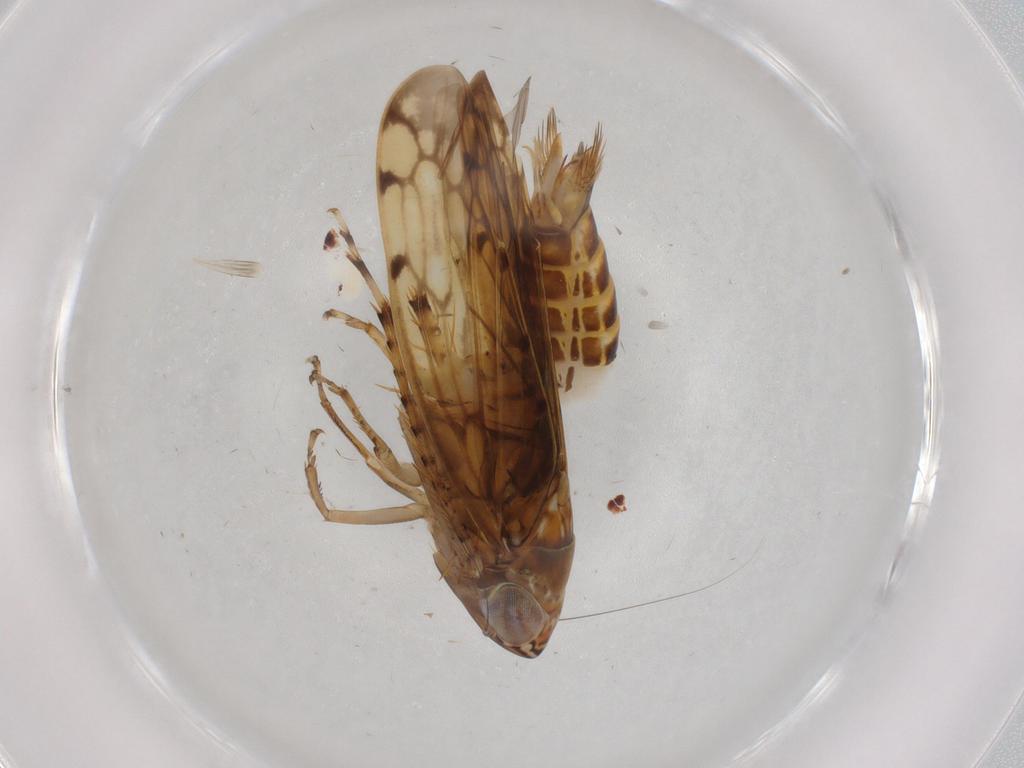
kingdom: Animalia
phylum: Arthropoda
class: Insecta
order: Hemiptera
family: Cicadellidae
